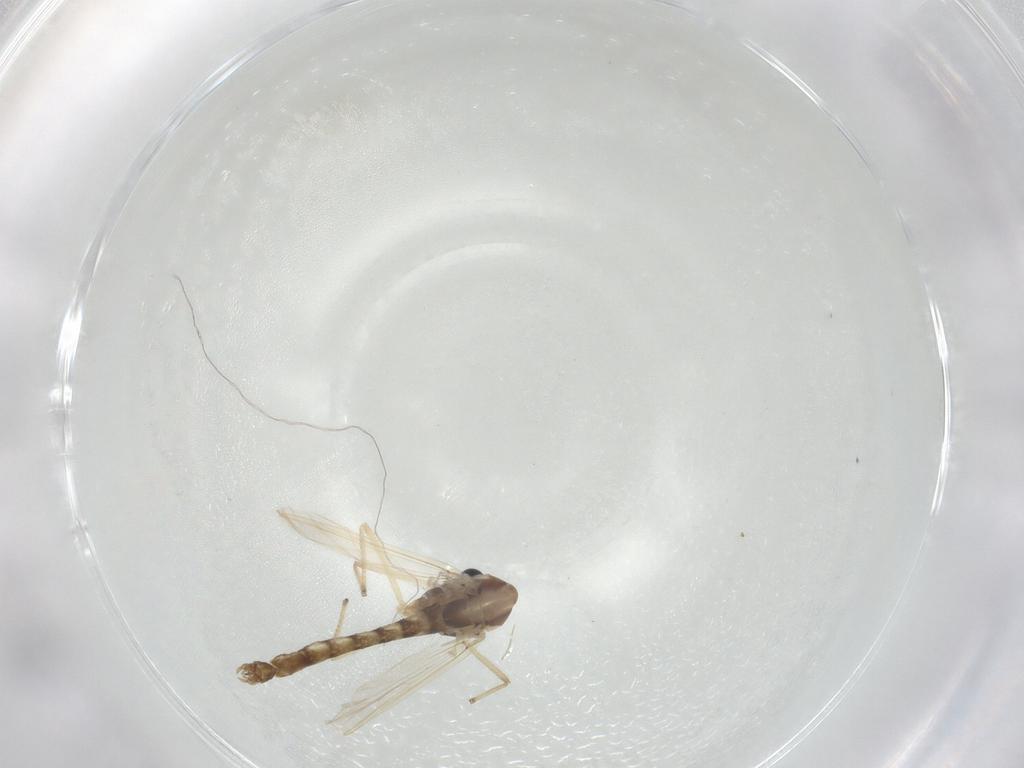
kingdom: Animalia
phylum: Arthropoda
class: Insecta
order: Diptera
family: Chironomidae
